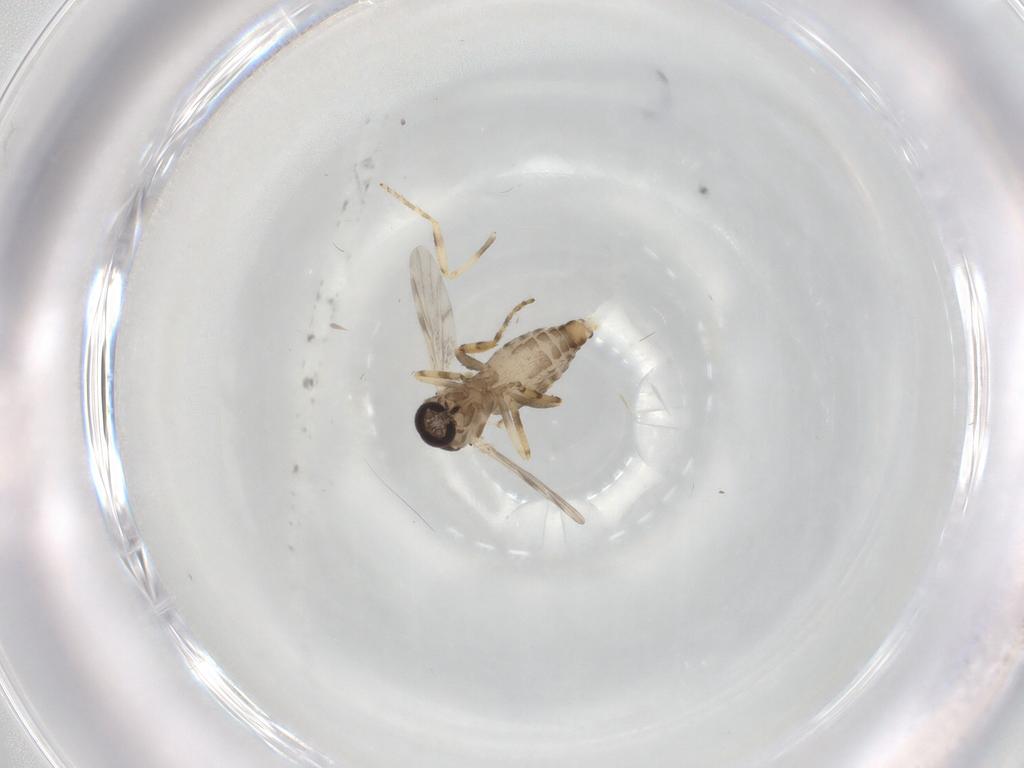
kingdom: Animalia
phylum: Arthropoda
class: Insecta
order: Diptera
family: Ceratopogonidae
